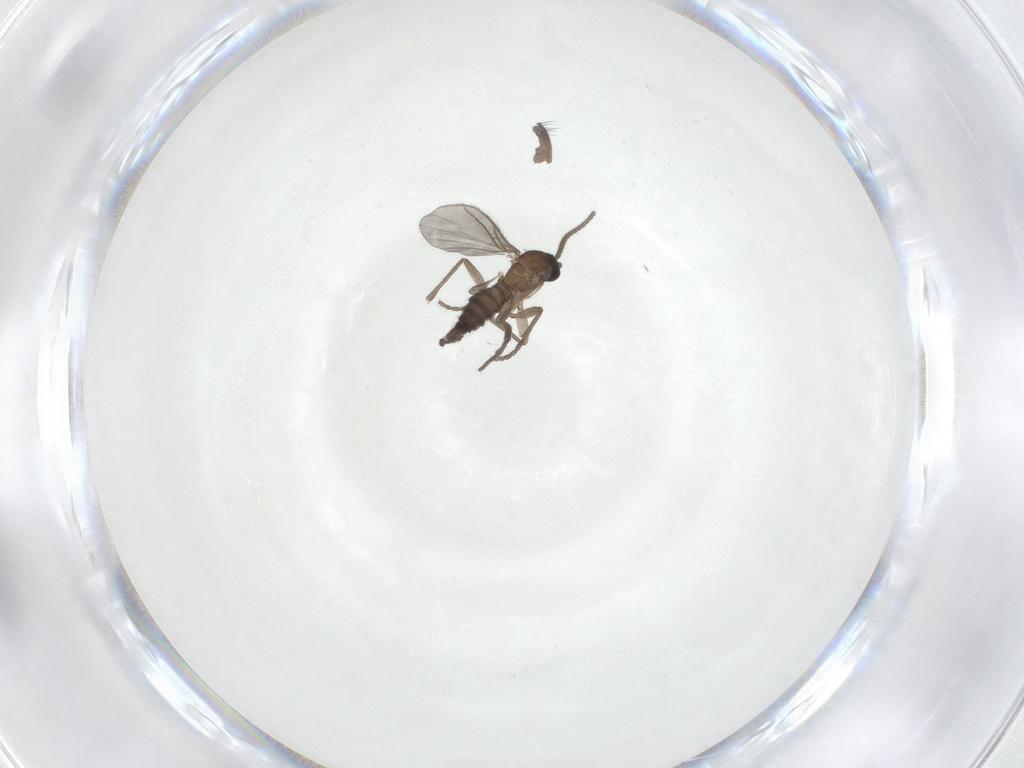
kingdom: Animalia
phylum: Arthropoda
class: Insecta
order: Diptera
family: Sciaridae
